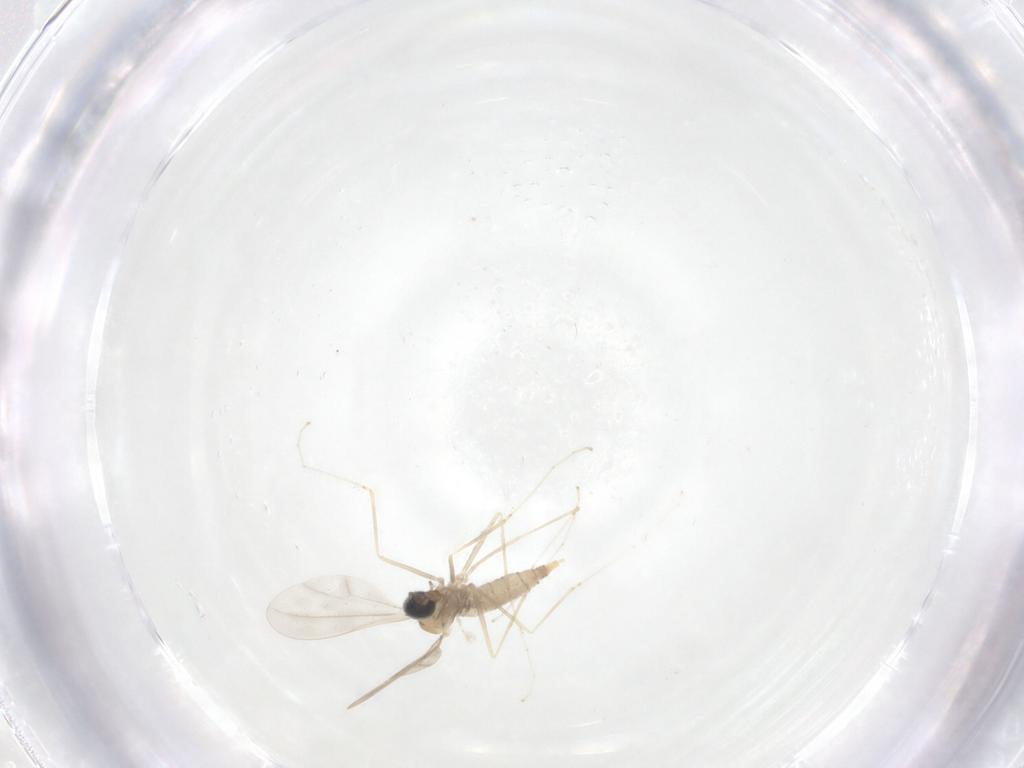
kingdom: Animalia
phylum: Arthropoda
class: Insecta
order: Diptera
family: Cecidomyiidae
